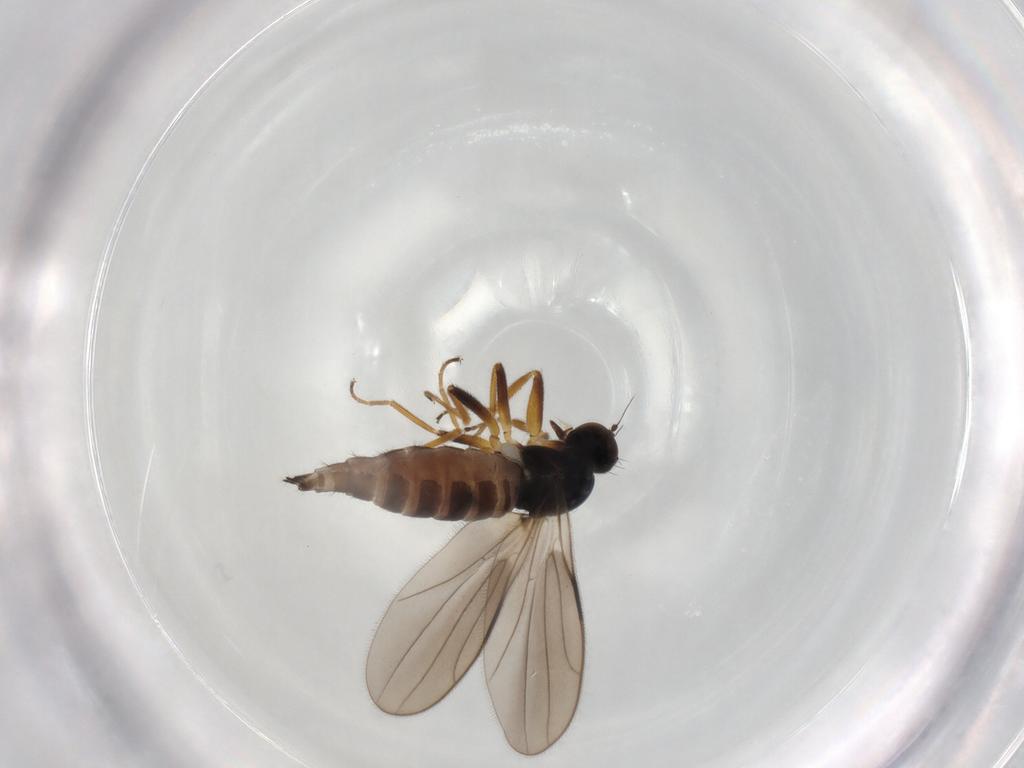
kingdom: Animalia
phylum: Arthropoda
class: Insecta
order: Diptera
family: Hybotidae
